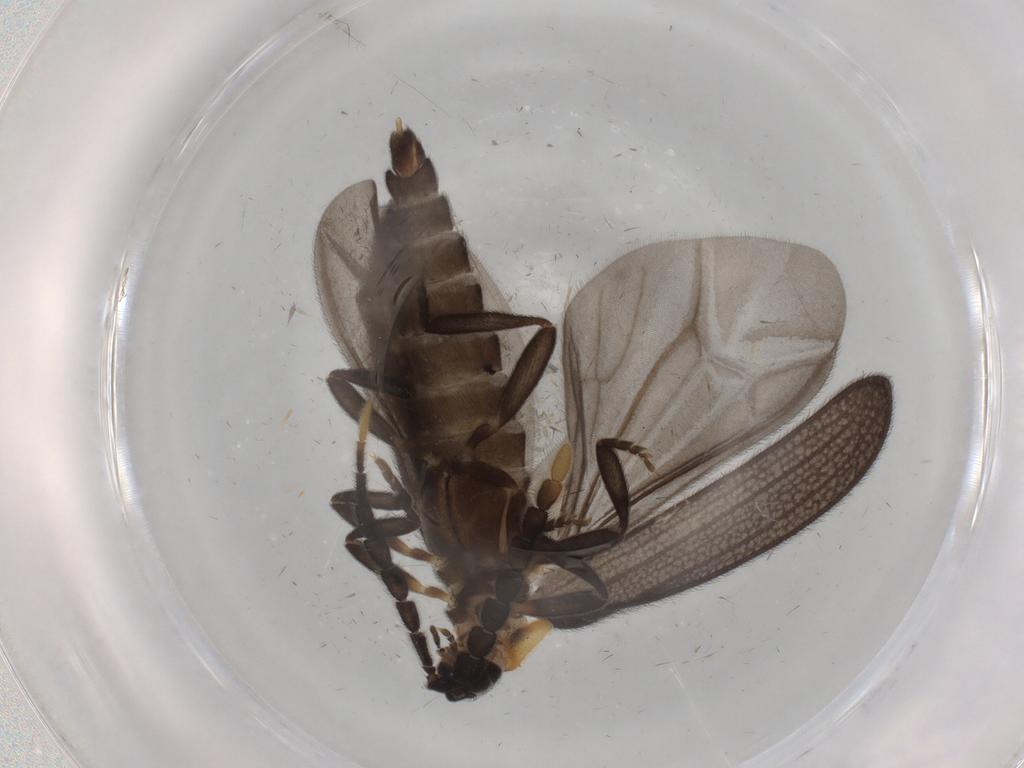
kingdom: Animalia
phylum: Arthropoda
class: Insecta
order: Coleoptera
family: Lycidae
